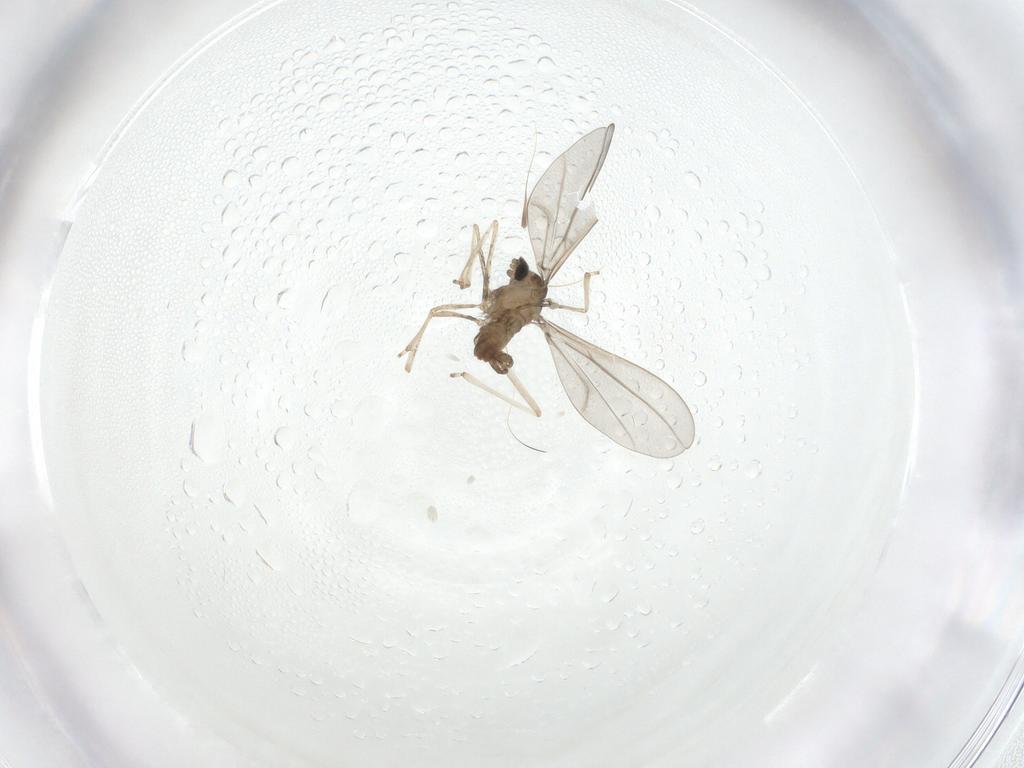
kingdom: Animalia
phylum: Arthropoda
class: Insecta
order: Diptera
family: Cecidomyiidae
